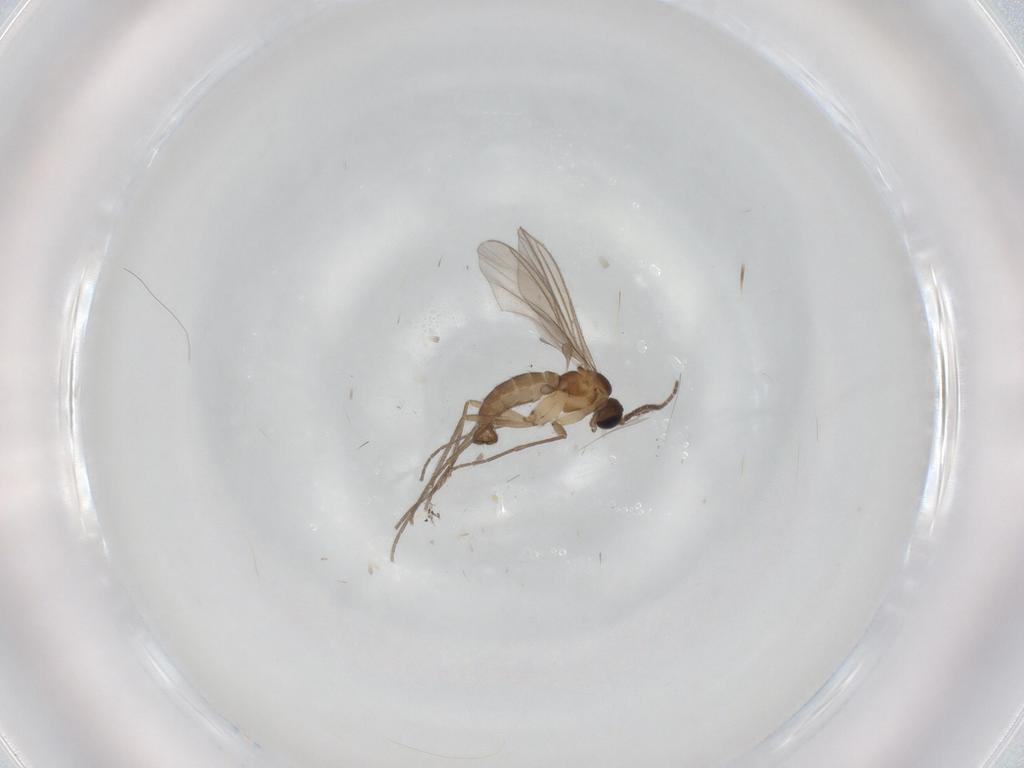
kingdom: Animalia
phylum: Arthropoda
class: Insecta
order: Diptera
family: Sciaridae
